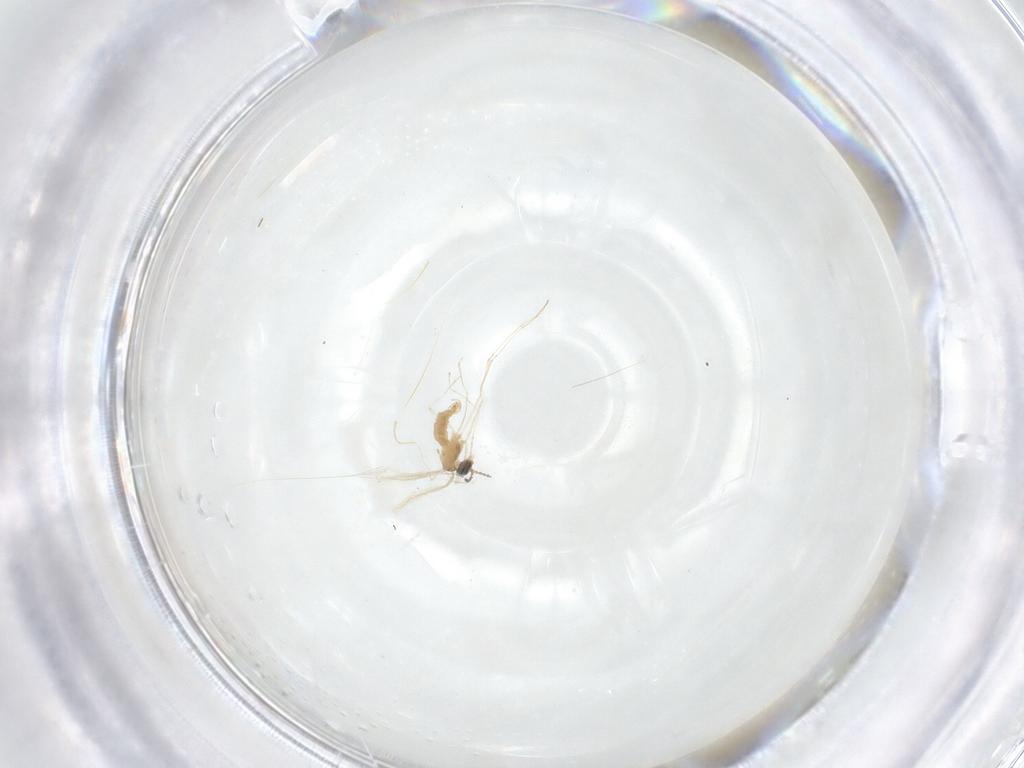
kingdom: Animalia
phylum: Arthropoda
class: Insecta
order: Diptera
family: Cecidomyiidae
